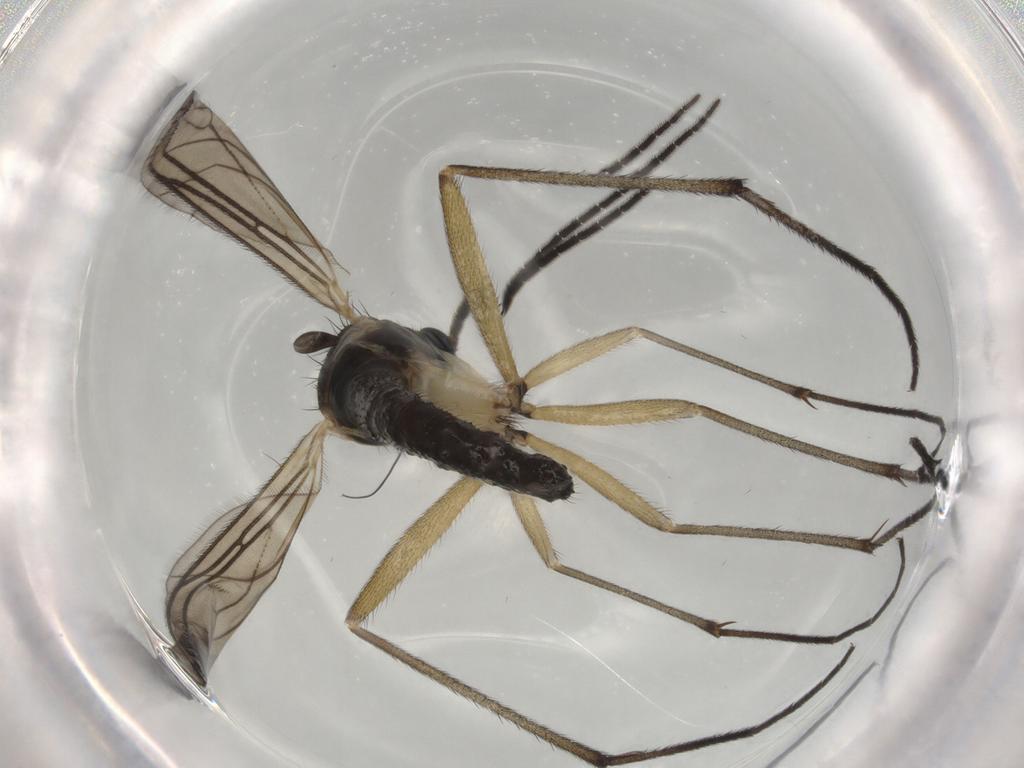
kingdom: Animalia
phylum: Arthropoda
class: Insecta
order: Diptera
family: Sciaridae
